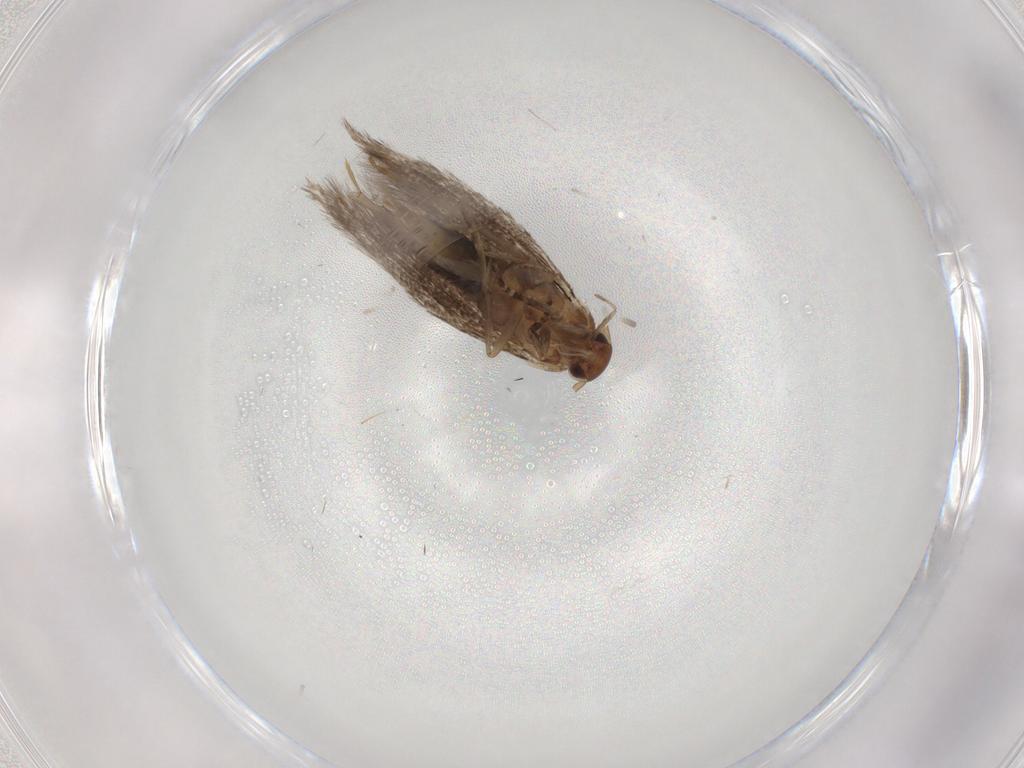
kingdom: Animalia
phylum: Arthropoda
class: Insecta
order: Lepidoptera
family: Elachistidae
